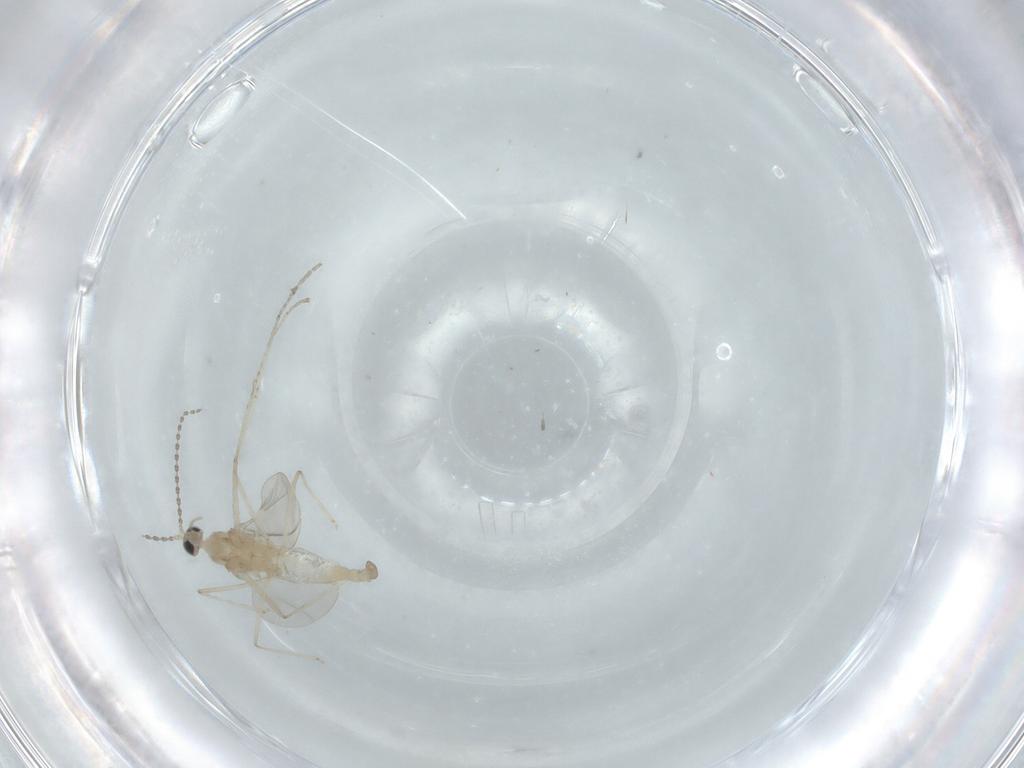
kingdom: Animalia
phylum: Arthropoda
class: Insecta
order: Diptera
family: Cecidomyiidae
